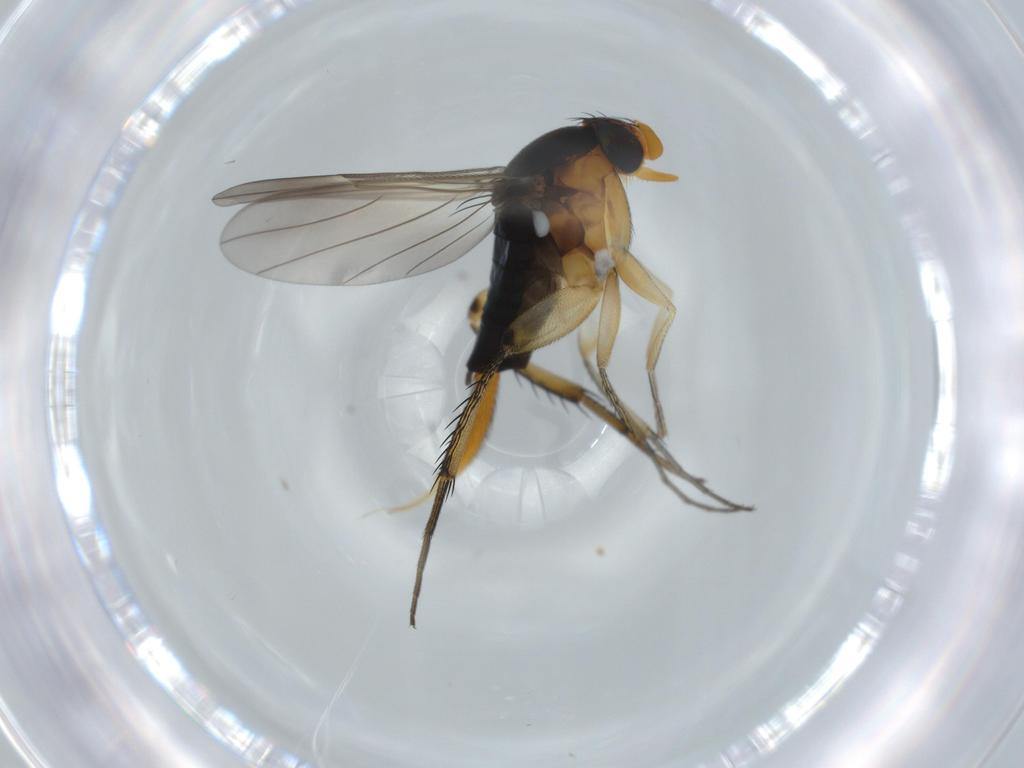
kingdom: Animalia
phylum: Arthropoda
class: Insecta
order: Diptera
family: Phoridae
